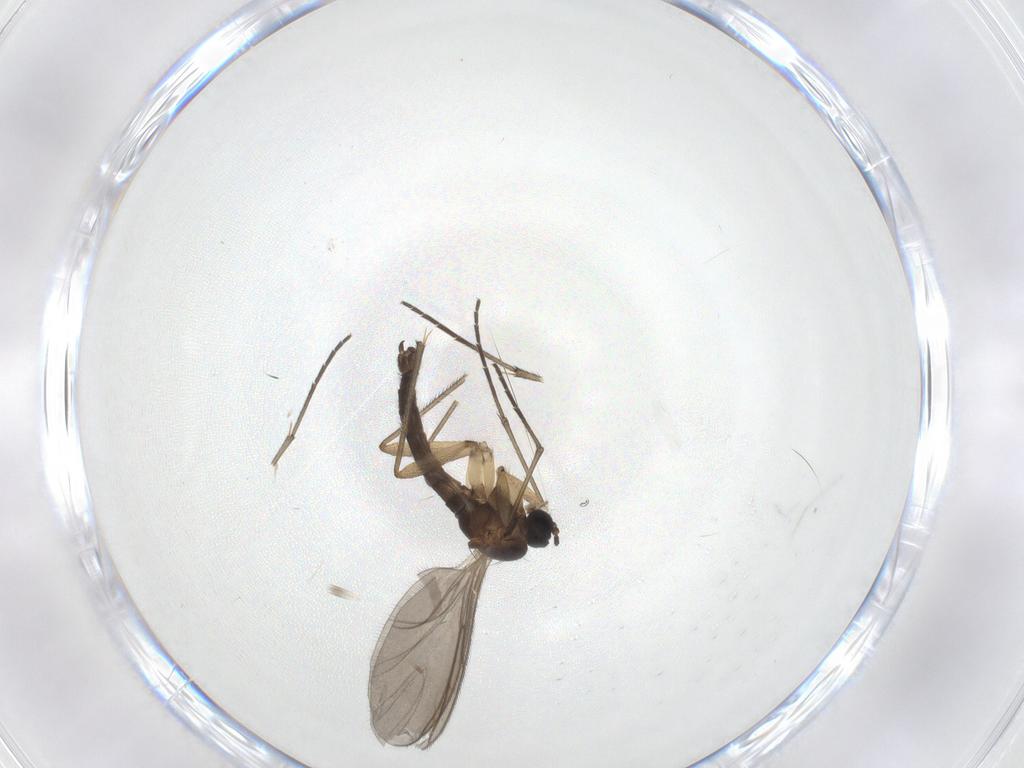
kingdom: Animalia
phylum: Arthropoda
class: Insecta
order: Diptera
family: Sciaridae
